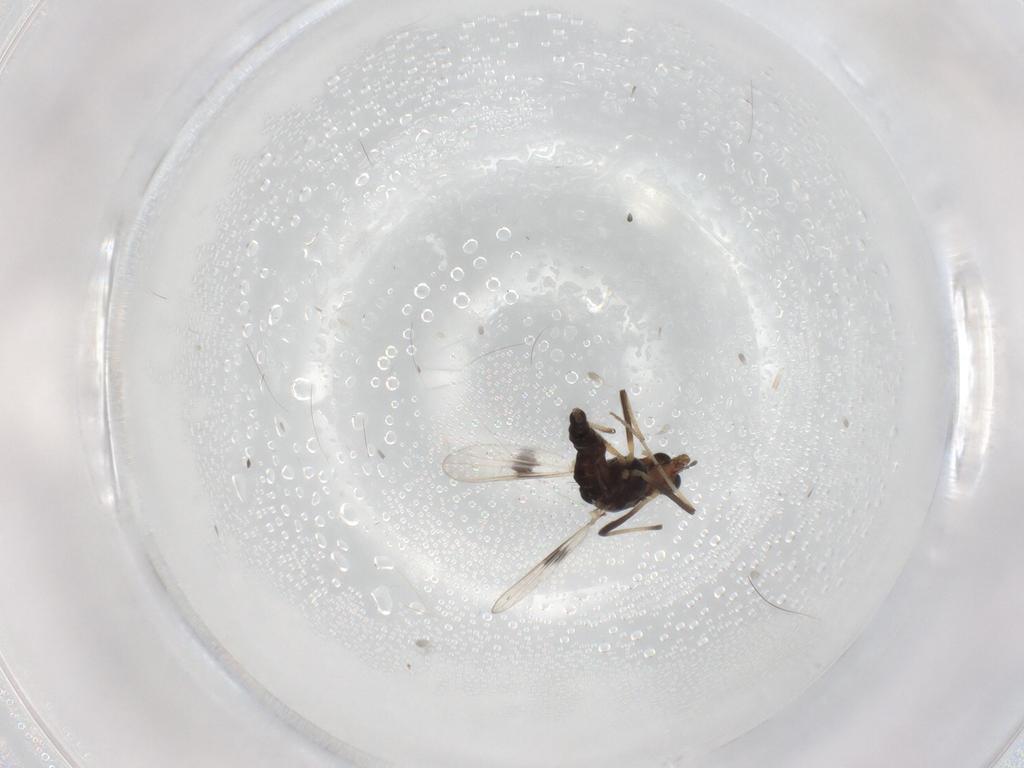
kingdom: Animalia
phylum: Arthropoda
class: Insecta
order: Diptera
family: Chironomidae
